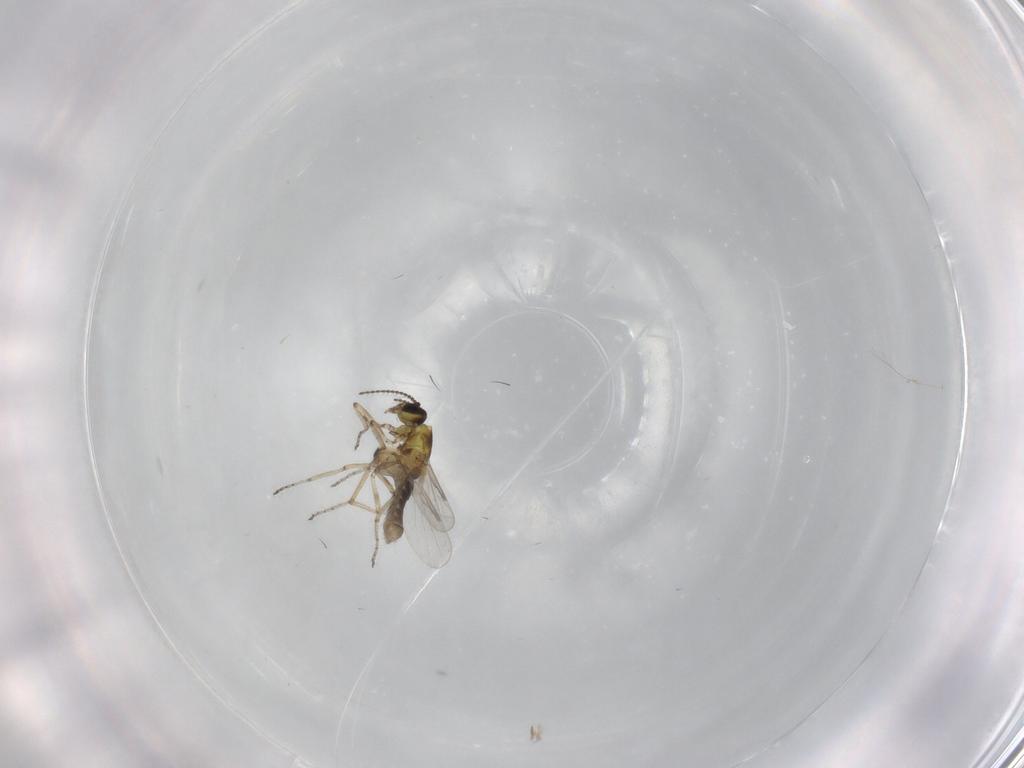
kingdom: Animalia
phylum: Arthropoda
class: Insecta
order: Diptera
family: Ceratopogonidae
